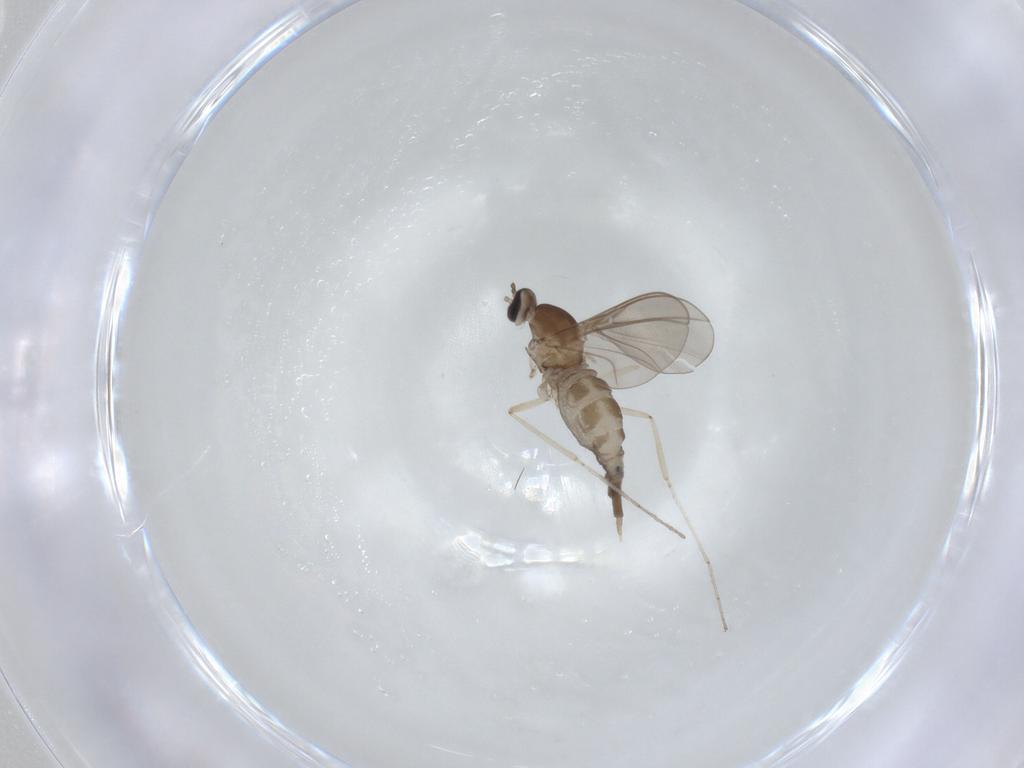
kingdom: Animalia
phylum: Arthropoda
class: Insecta
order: Diptera
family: Cecidomyiidae
